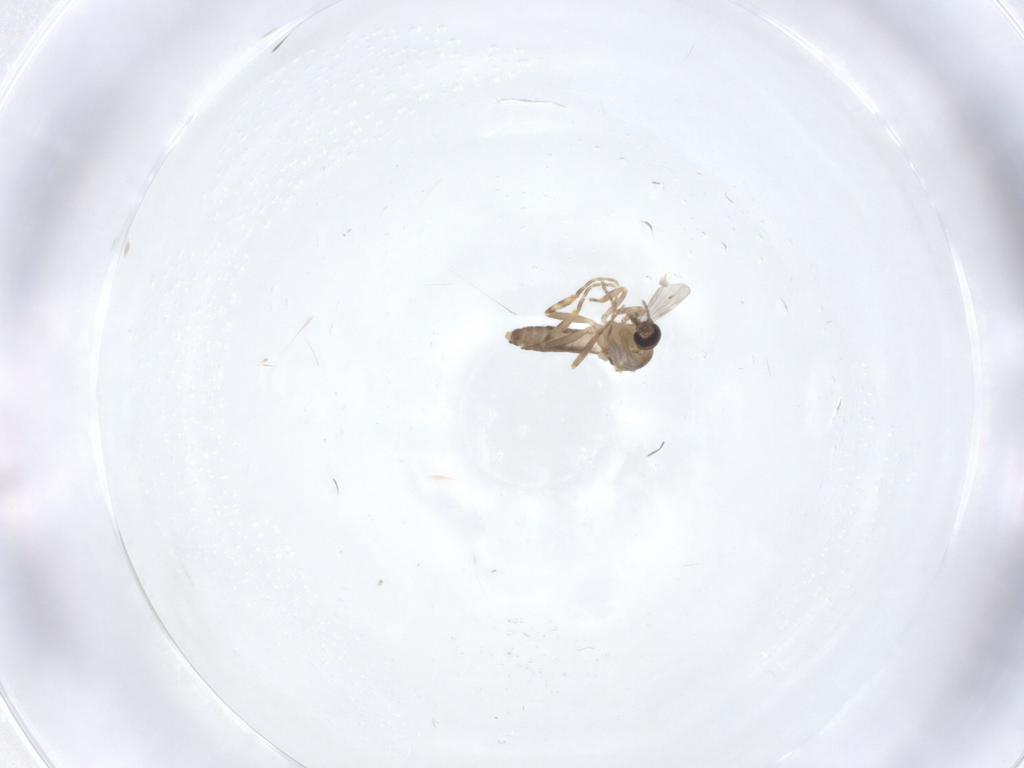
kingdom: Animalia
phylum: Arthropoda
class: Insecta
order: Diptera
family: Ceratopogonidae
